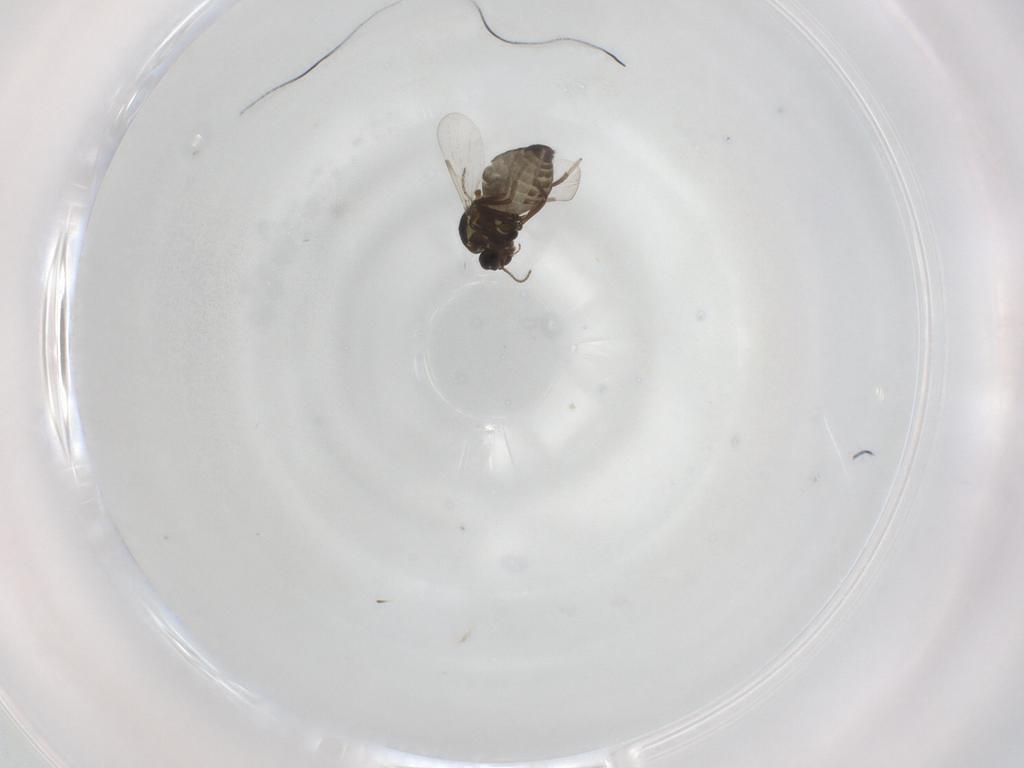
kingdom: Animalia
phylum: Arthropoda
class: Insecta
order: Diptera
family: Ceratopogonidae
